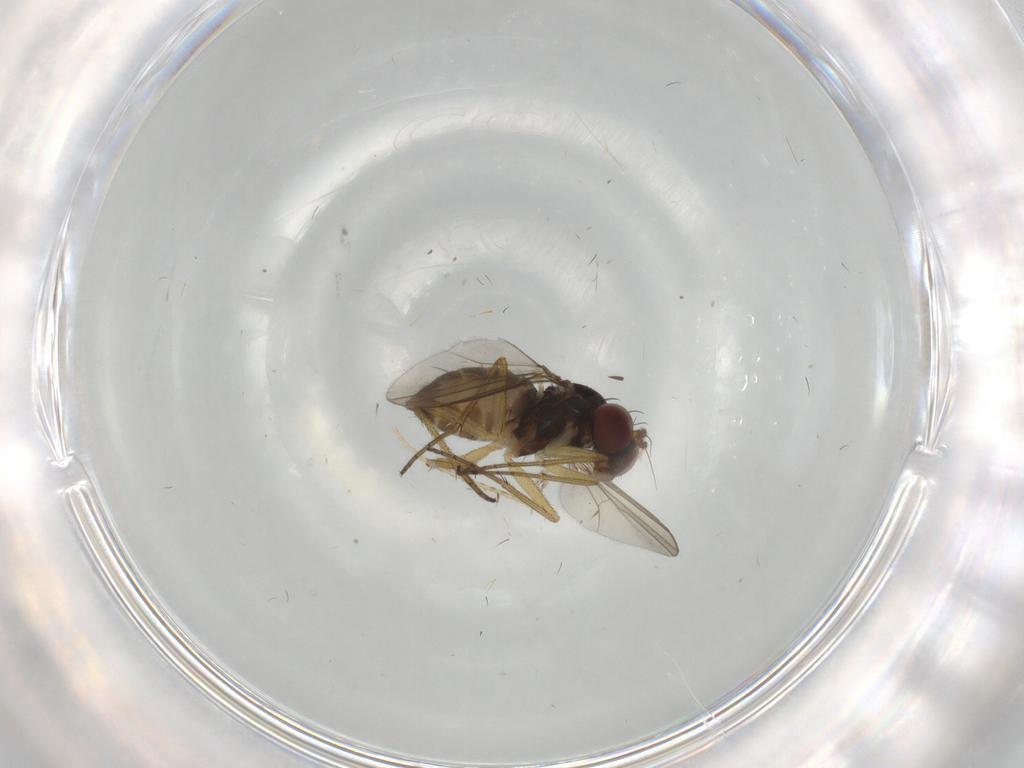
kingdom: Animalia
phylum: Arthropoda
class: Insecta
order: Diptera
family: Dolichopodidae
